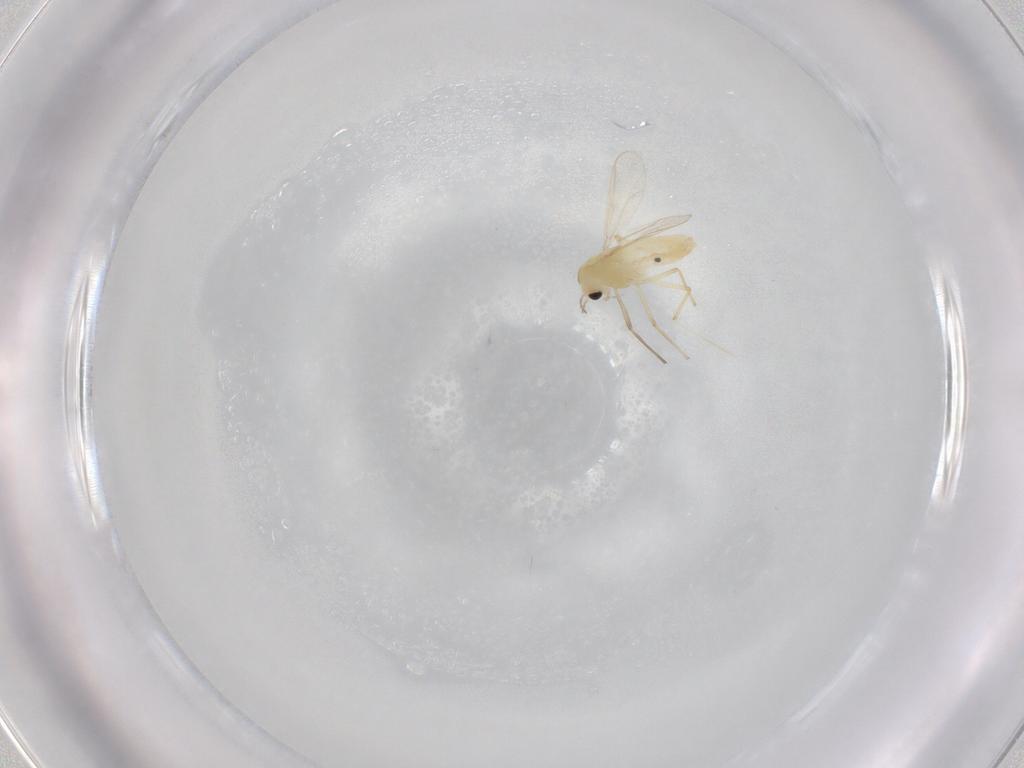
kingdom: Animalia
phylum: Arthropoda
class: Insecta
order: Diptera
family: Chironomidae
